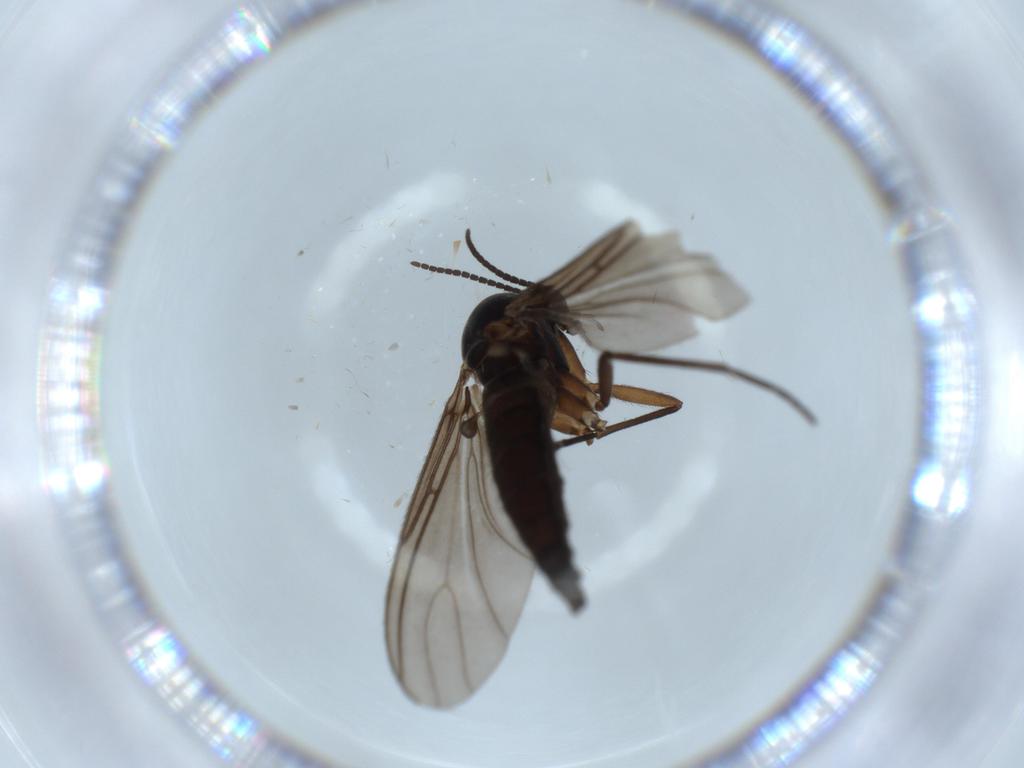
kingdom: Animalia
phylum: Arthropoda
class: Insecta
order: Diptera
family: Sciaridae
